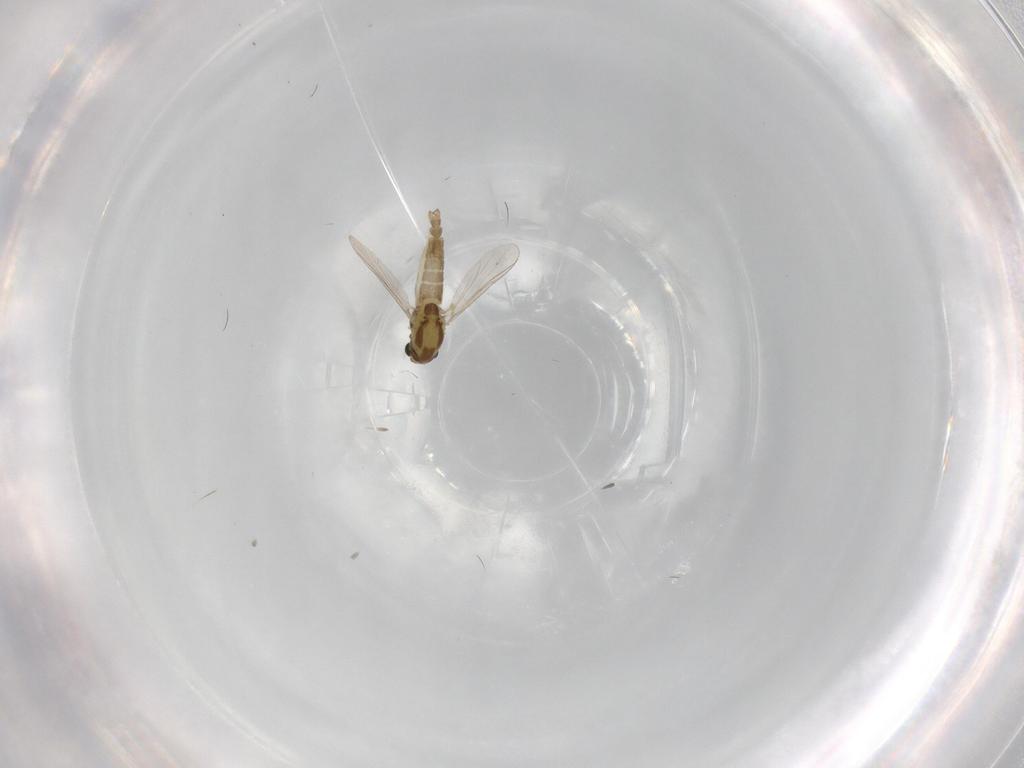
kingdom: Animalia
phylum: Arthropoda
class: Insecta
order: Diptera
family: Chironomidae
